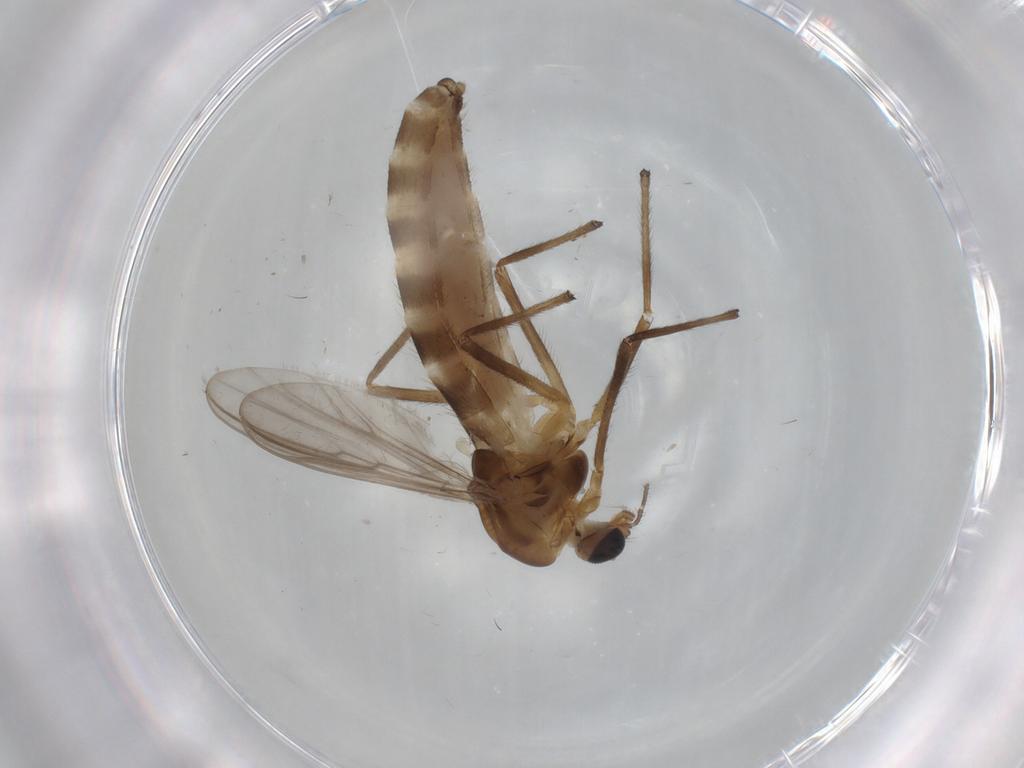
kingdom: Animalia
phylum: Arthropoda
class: Insecta
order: Diptera
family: Chironomidae
